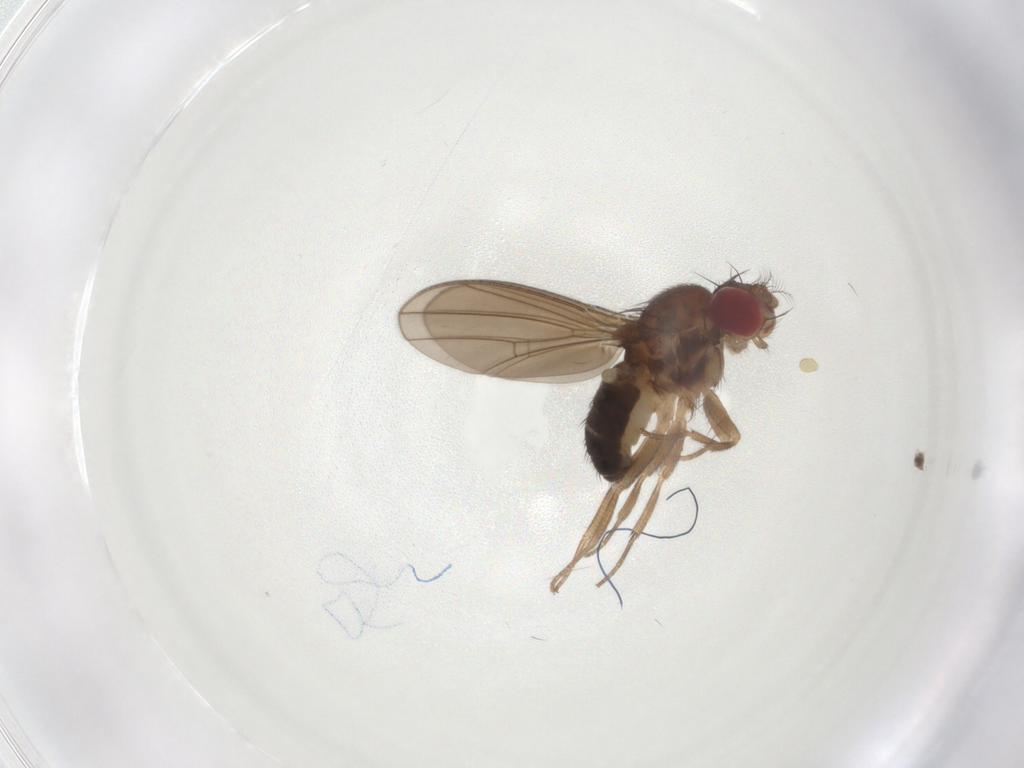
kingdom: Animalia
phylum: Arthropoda
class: Insecta
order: Diptera
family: Drosophilidae
